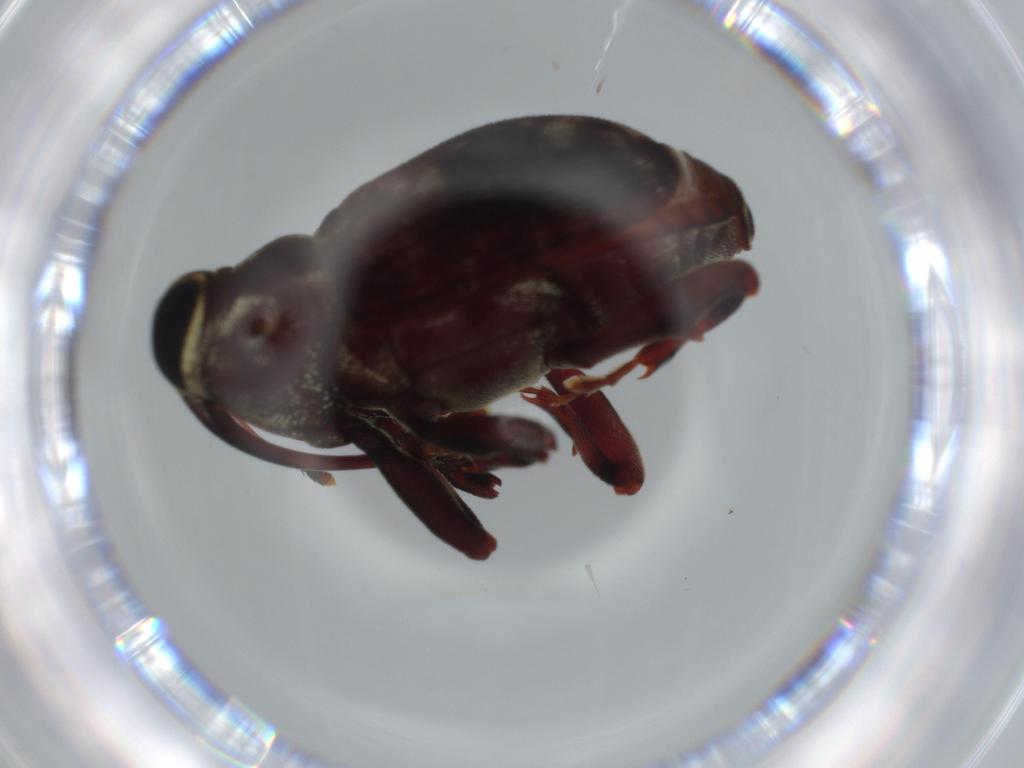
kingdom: Animalia
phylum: Arthropoda
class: Insecta
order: Coleoptera
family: Curculionidae
